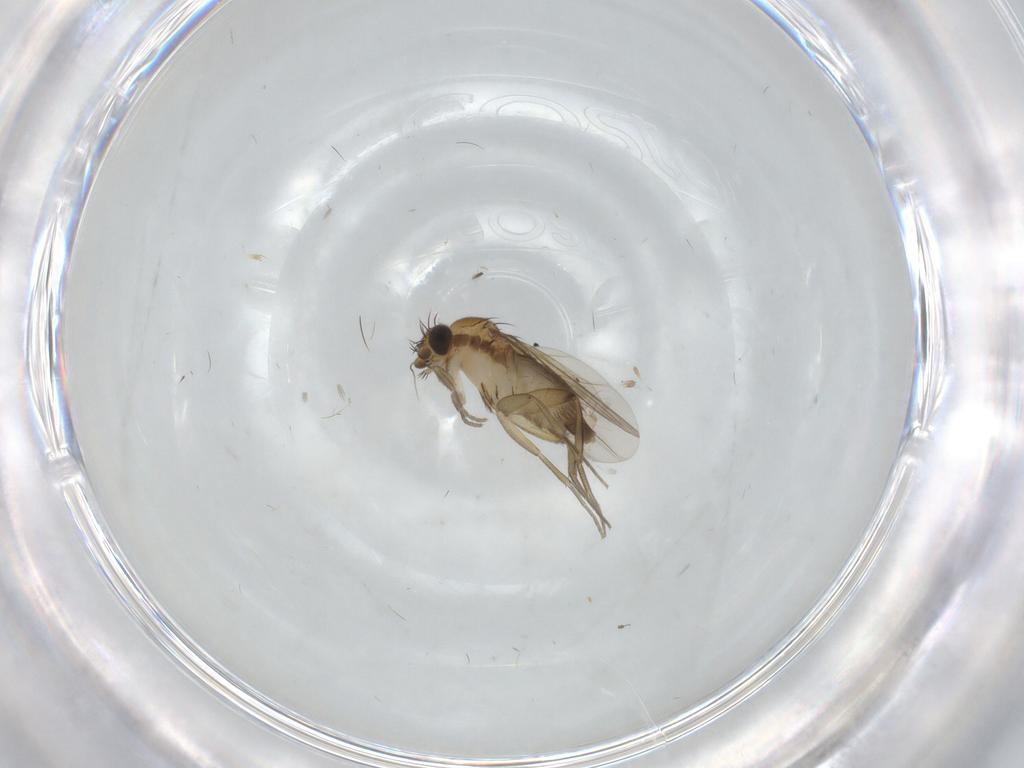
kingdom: Animalia
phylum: Arthropoda
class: Insecta
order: Diptera
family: Phoridae
